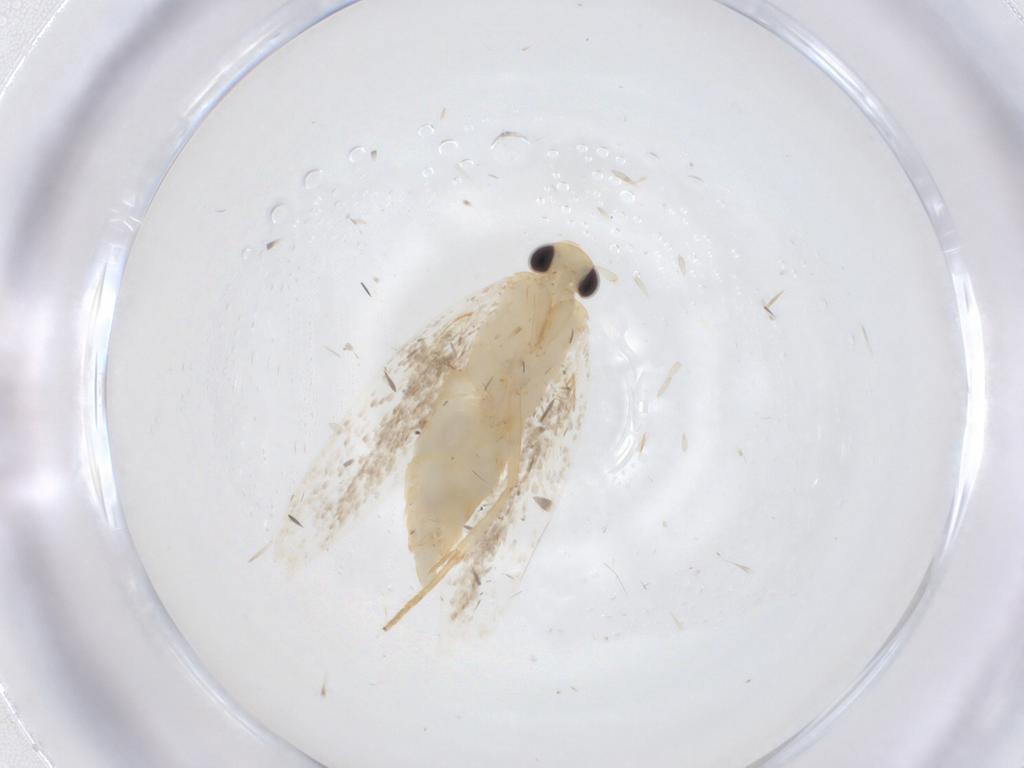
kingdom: Animalia
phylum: Arthropoda
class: Insecta
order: Lepidoptera
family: Oecophoridae
